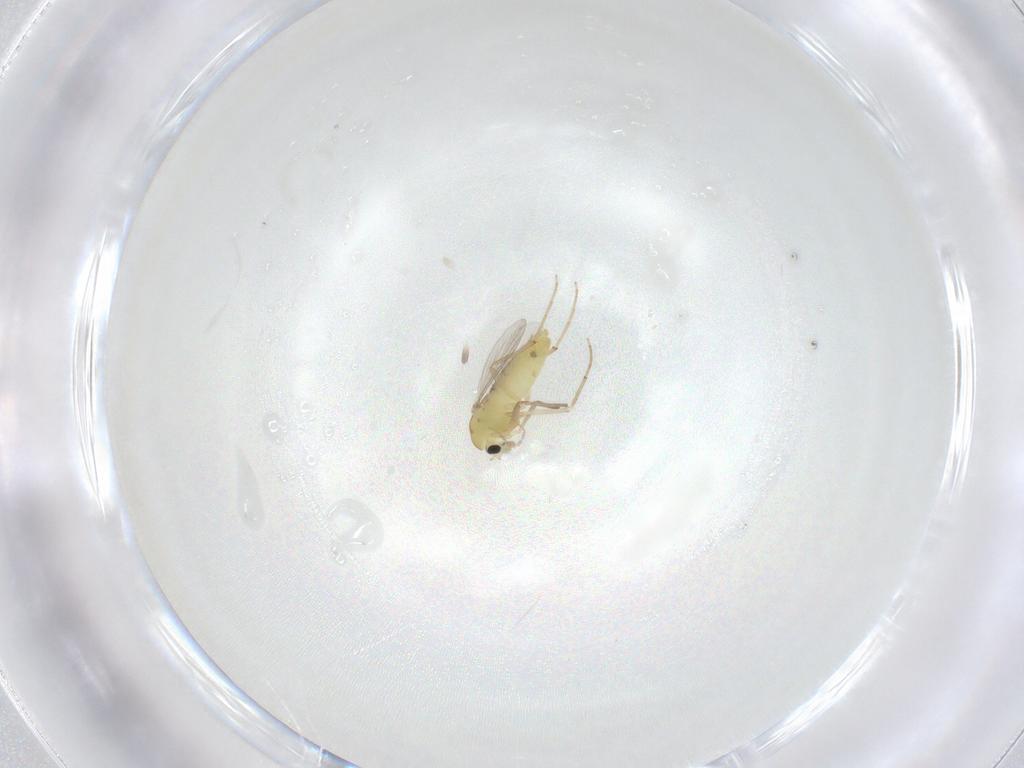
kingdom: Animalia
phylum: Arthropoda
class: Insecta
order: Diptera
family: Chironomidae
